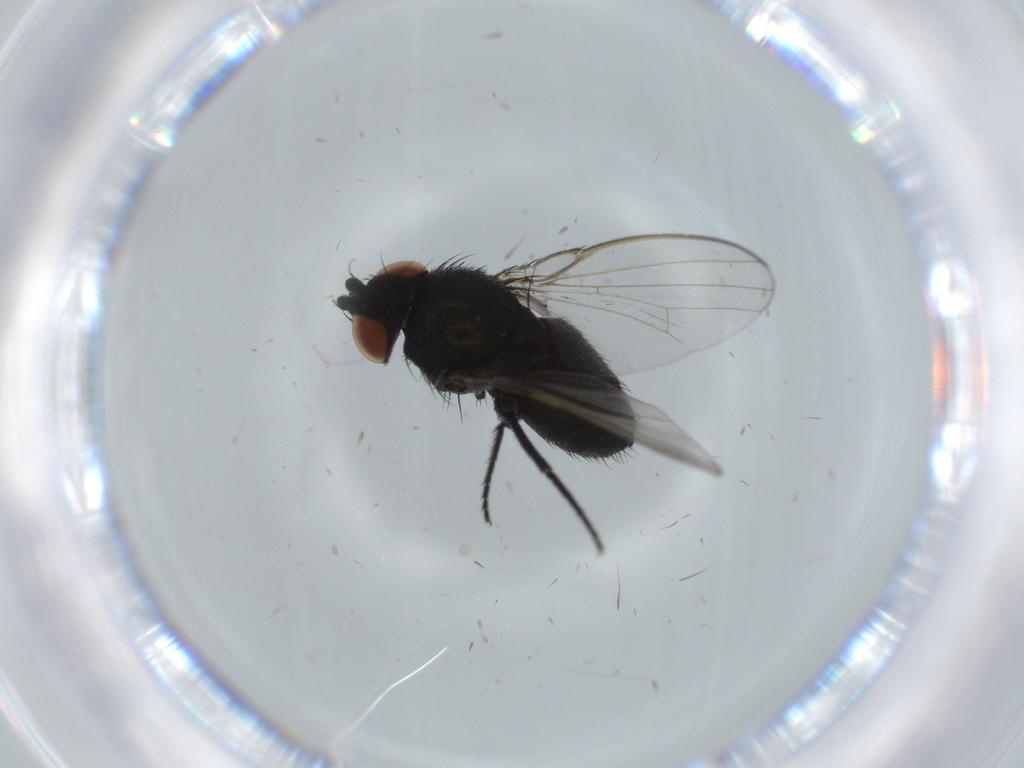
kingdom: Animalia
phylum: Arthropoda
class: Insecta
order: Diptera
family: Milichiidae
